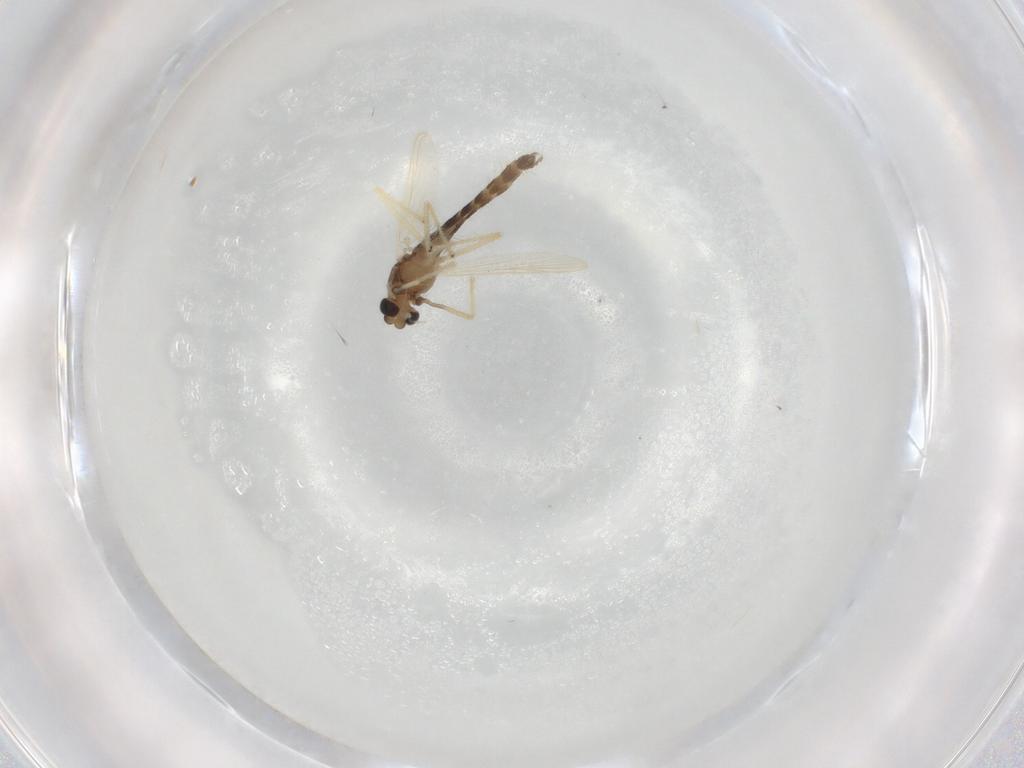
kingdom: Animalia
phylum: Arthropoda
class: Insecta
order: Diptera
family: Chironomidae
